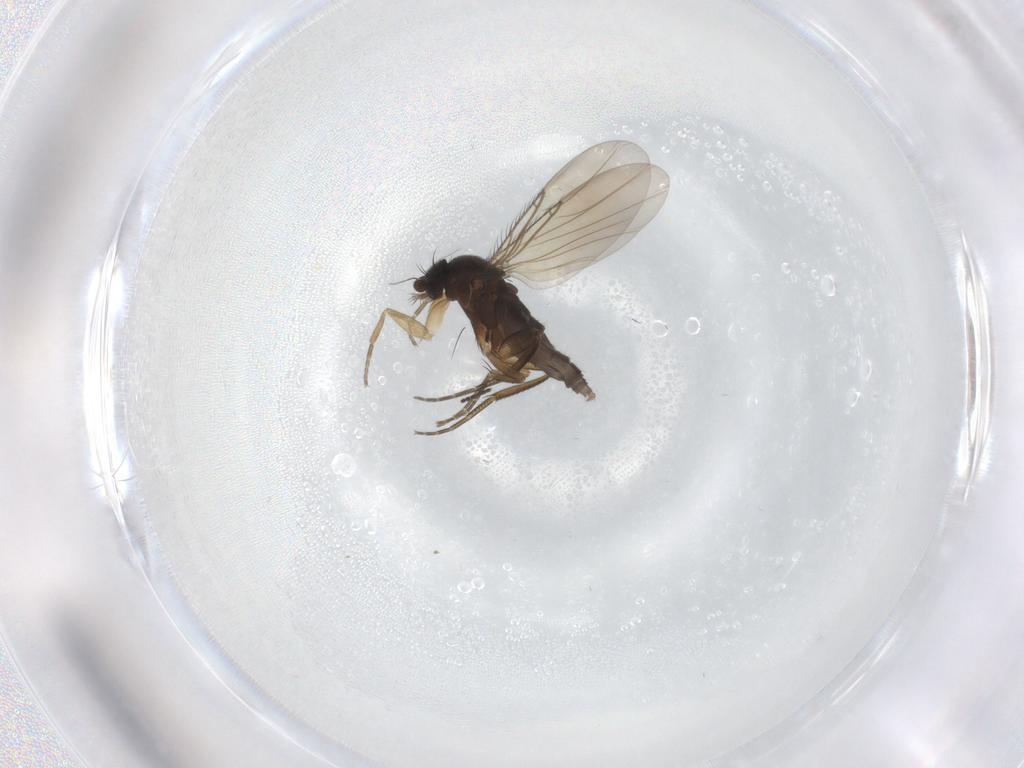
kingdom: Animalia
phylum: Arthropoda
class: Insecta
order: Diptera
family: Phoridae
